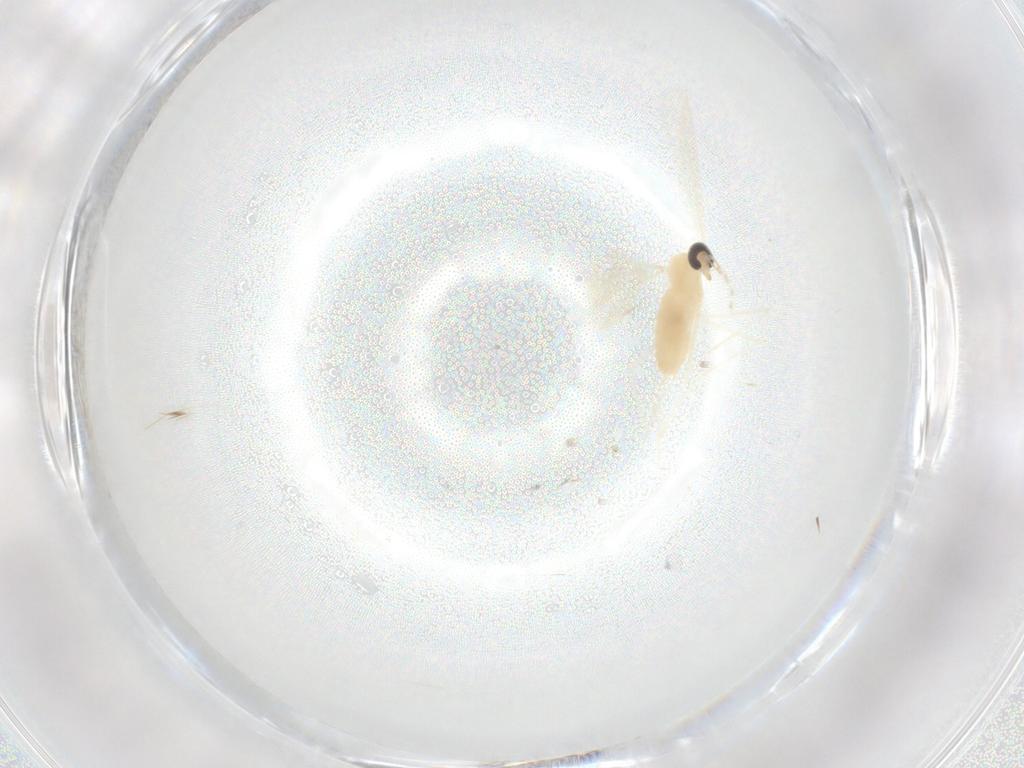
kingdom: Animalia
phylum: Arthropoda
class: Insecta
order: Diptera
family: Cecidomyiidae
